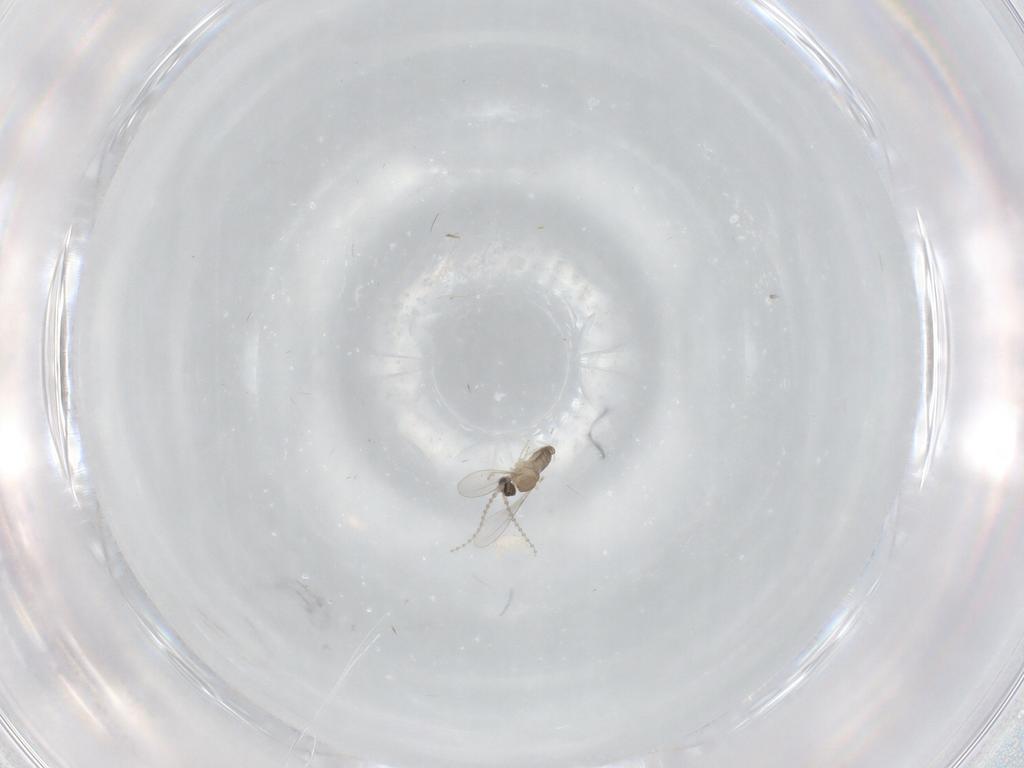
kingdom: Animalia
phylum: Arthropoda
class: Insecta
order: Diptera
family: Cecidomyiidae
